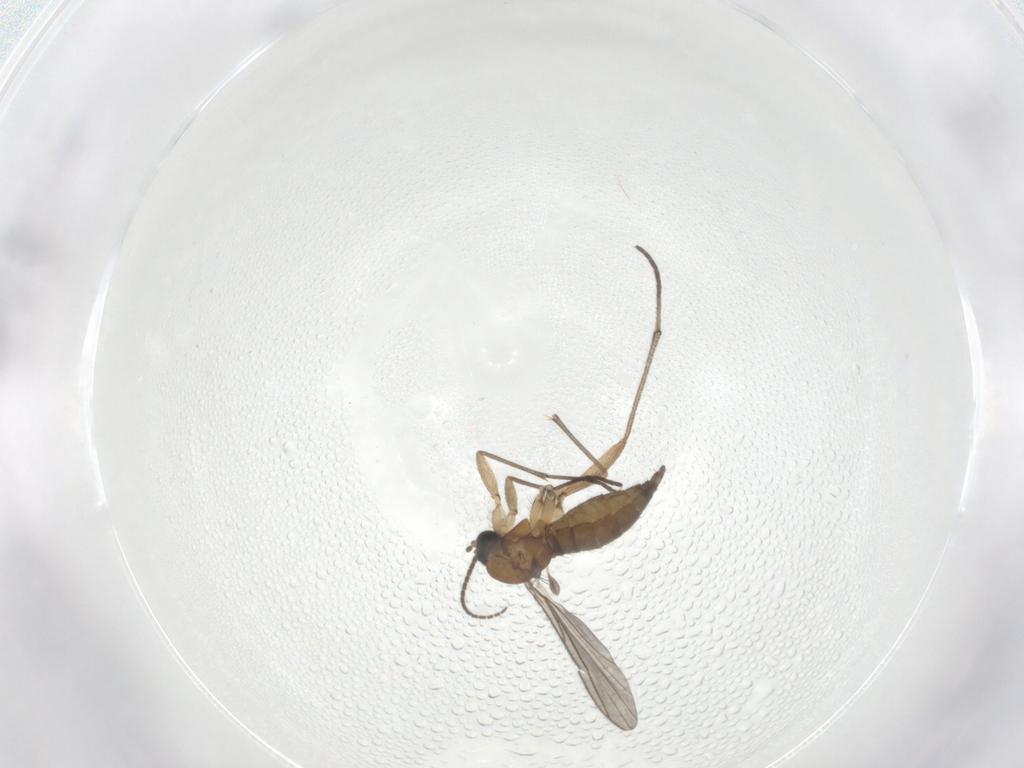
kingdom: Animalia
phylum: Arthropoda
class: Insecta
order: Diptera
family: Sciaridae
